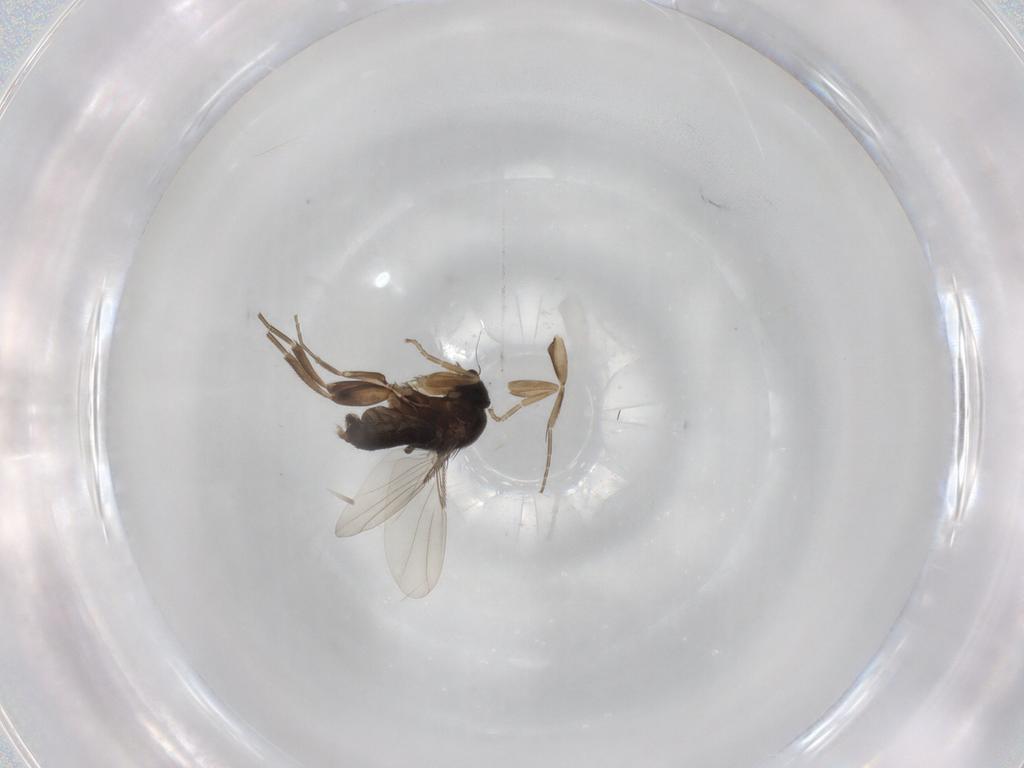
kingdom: Animalia
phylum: Arthropoda
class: Insecta
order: Diptera
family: Phoridae
